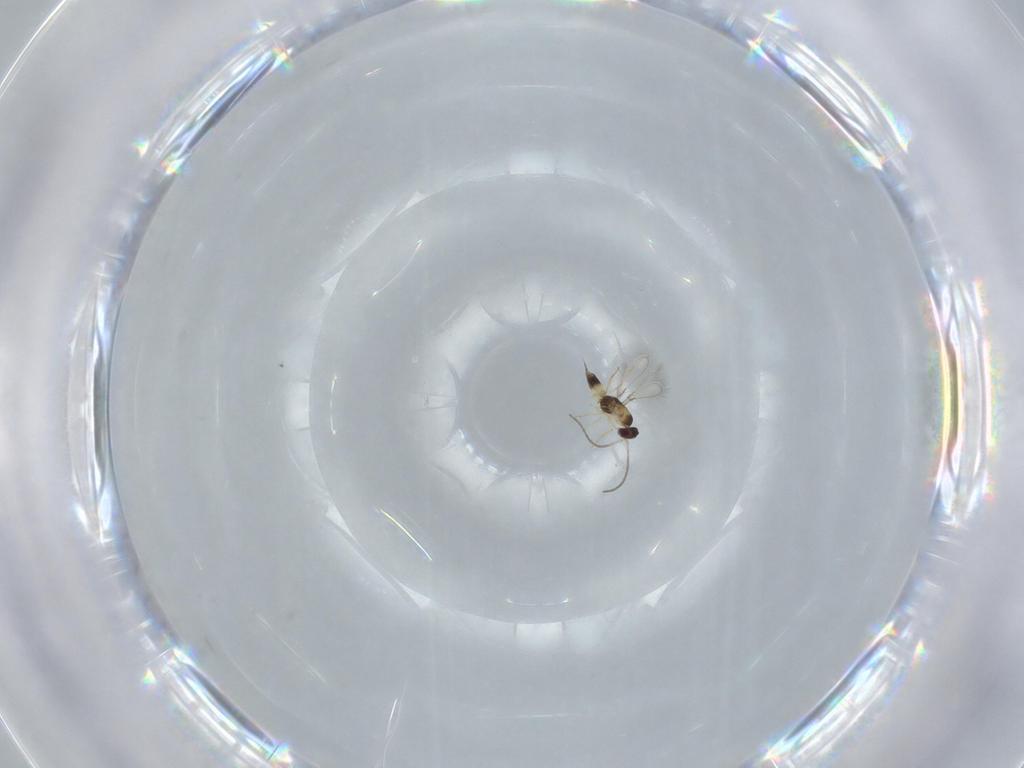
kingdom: Animalia
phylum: Arthropoda
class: Insecta
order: Hymenoptera
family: Mymaridae
